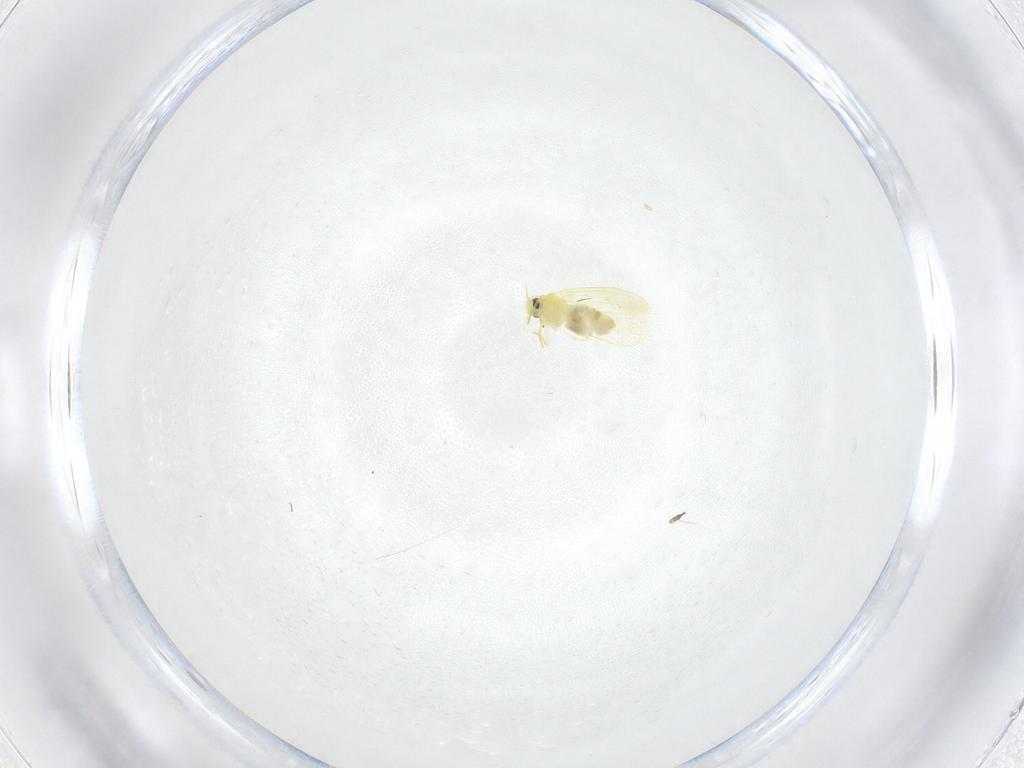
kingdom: Animalia
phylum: Arthropoda
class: Insecta
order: Hemiptera
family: Aleyrodidae
